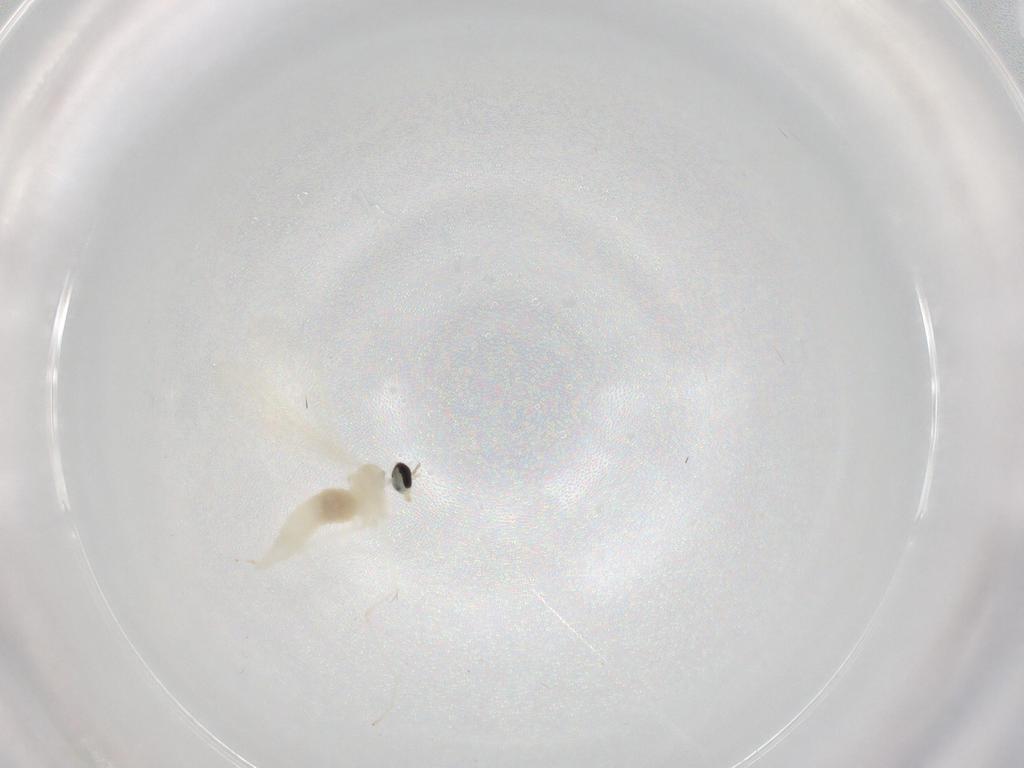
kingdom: Animalia
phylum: Arthropoda
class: Insecta
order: Diptera
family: Cecidomyiidae
